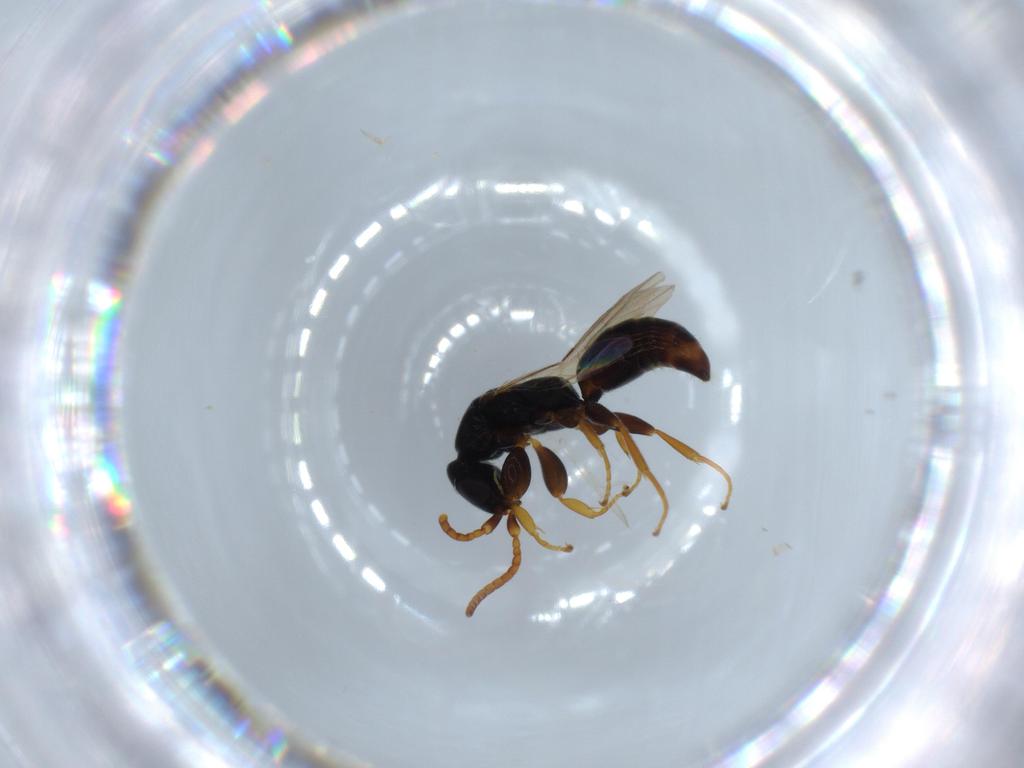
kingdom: Animalia
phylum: Arthropoda
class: Insecta
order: Hymenoptera
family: Bethylidae
